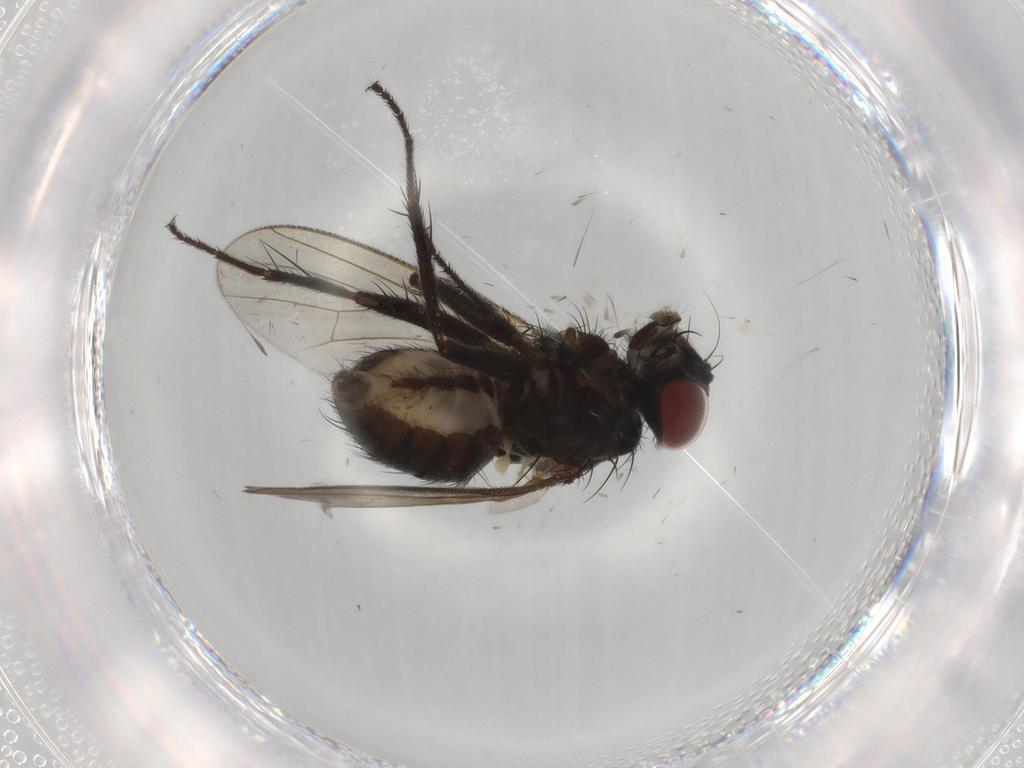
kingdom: Animalia
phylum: Arthropoda
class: Insecta
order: Diptera
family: Muscidae
